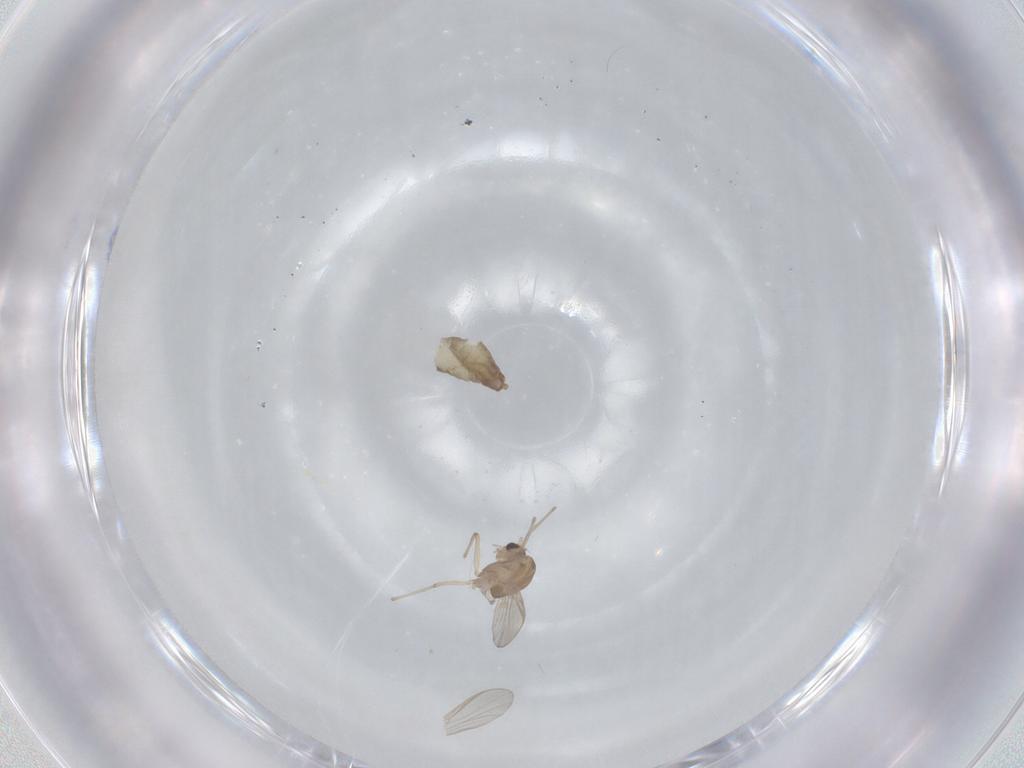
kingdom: Animalia
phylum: Arthropoda
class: Insecta
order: Diptera
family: Chironomidae
